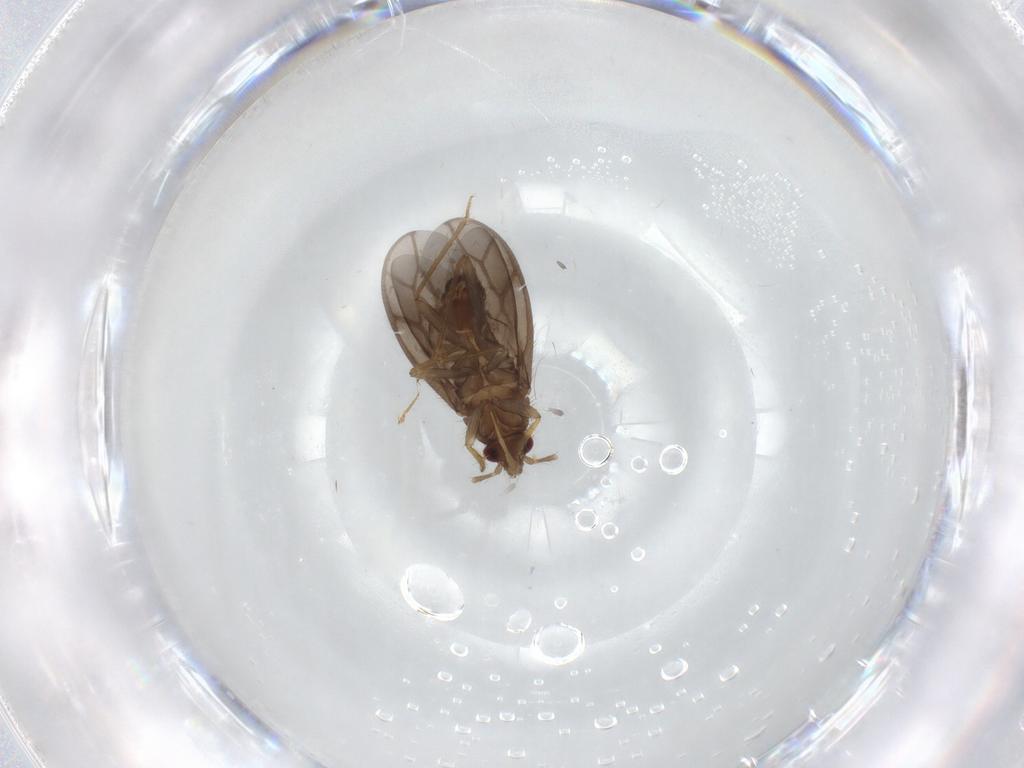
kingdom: Animalia
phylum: Arthropoda
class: Insecta
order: Hemiptera
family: Ceratocombidae
